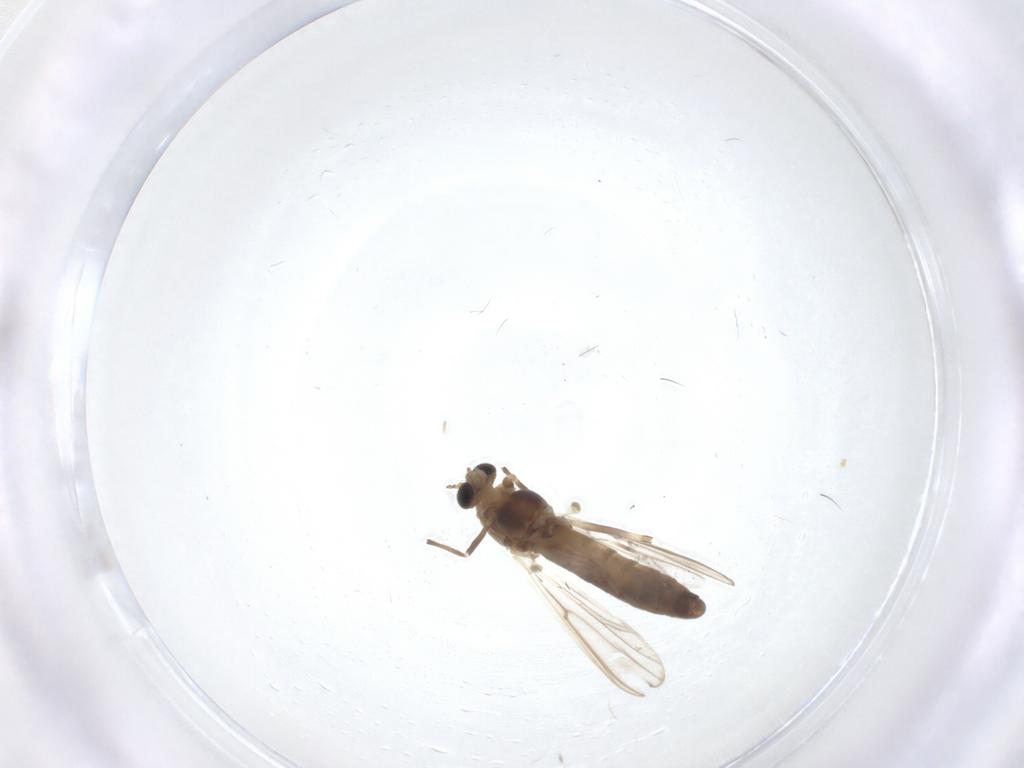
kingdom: Animalia
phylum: Arthropoda
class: Insecta
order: Diptera
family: Chironomidae
